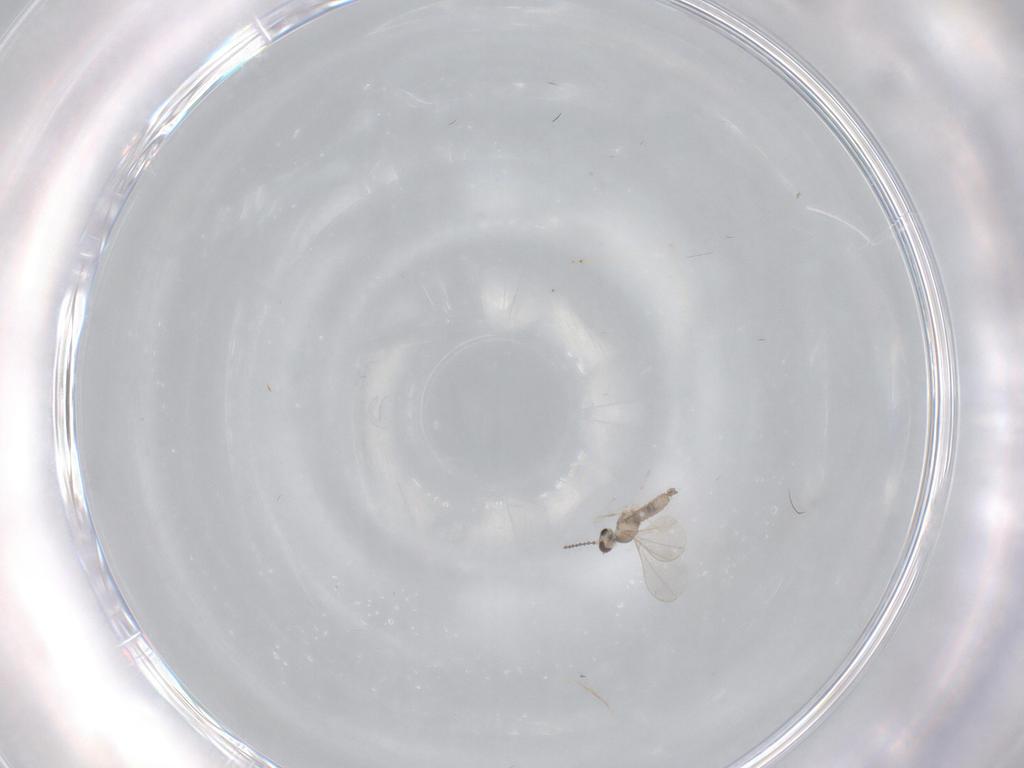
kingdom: Animalia
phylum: Arthropoda
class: Insecta
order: Diptera
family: Cecidomyiidae
